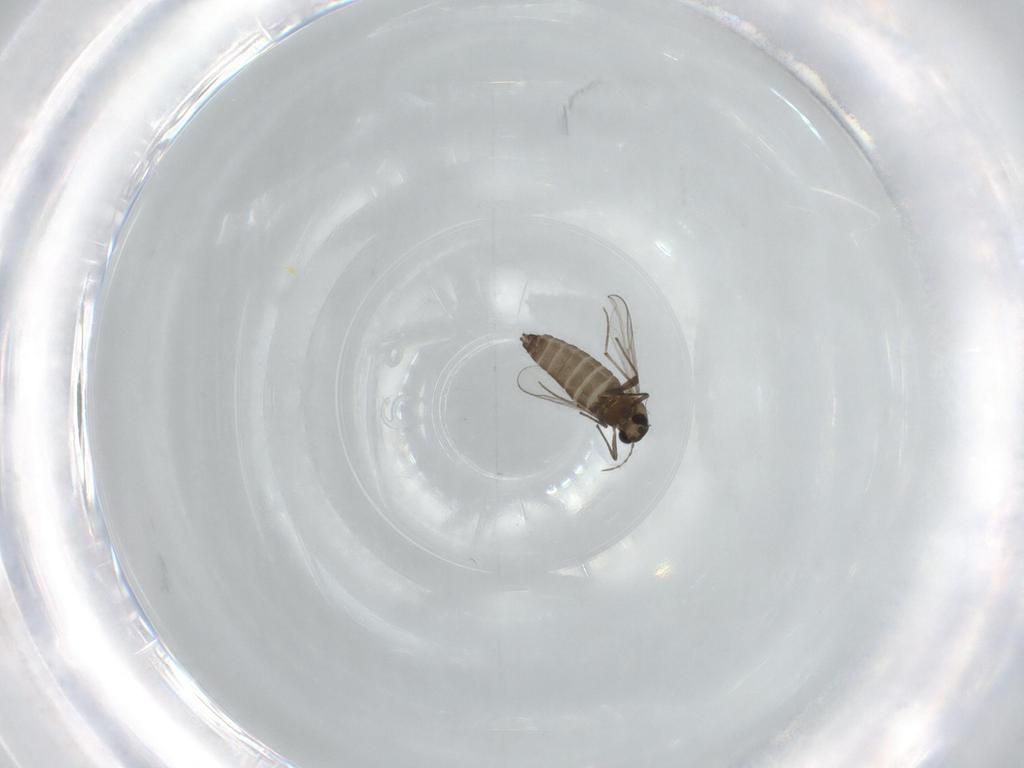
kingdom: Animalia
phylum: Arthropoda
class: Insecta
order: Diptera
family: Chironomidae
